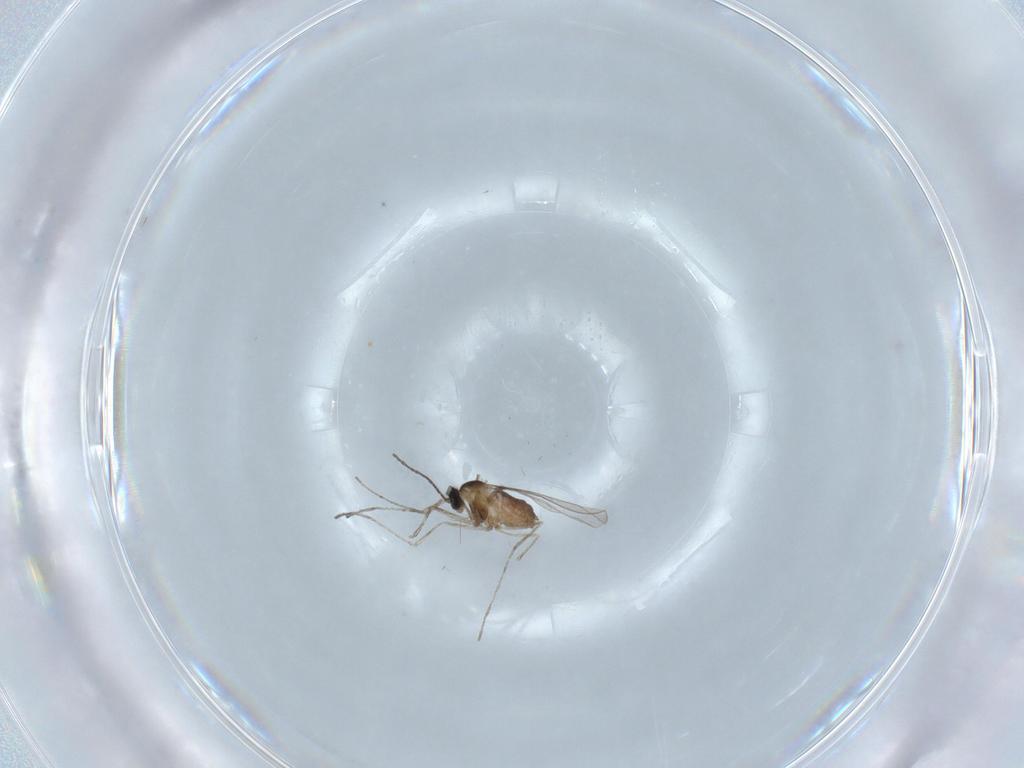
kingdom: Animalia
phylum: Arthropoda
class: Insecta
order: Diptera
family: Cecidomyiidae
